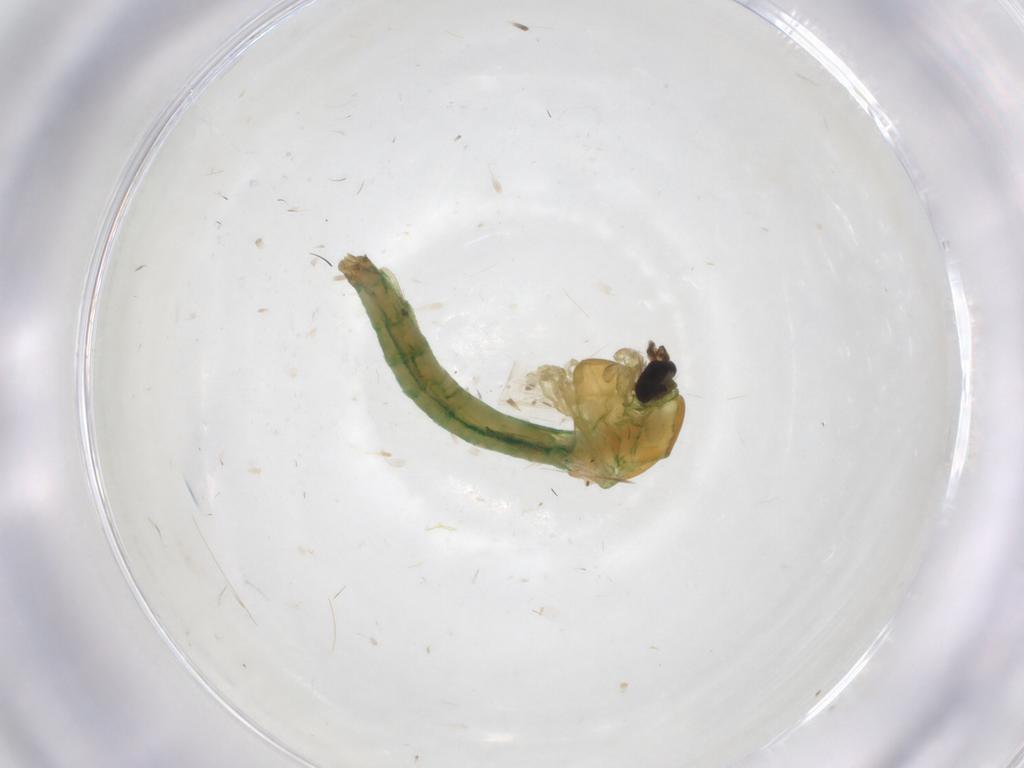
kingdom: Animalia
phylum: Arthropoda
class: Insecta
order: Diptera
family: Chironomidae
